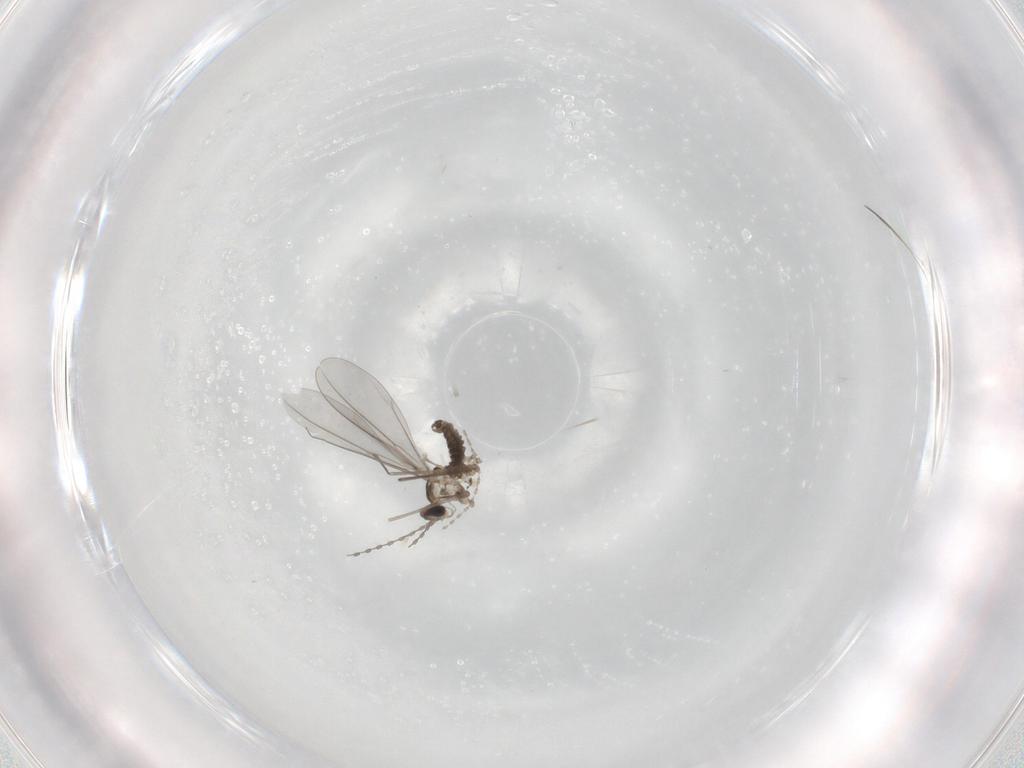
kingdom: Animalia
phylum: Arthropoda
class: Insecta
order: Diptera
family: Cecidomyiidae
